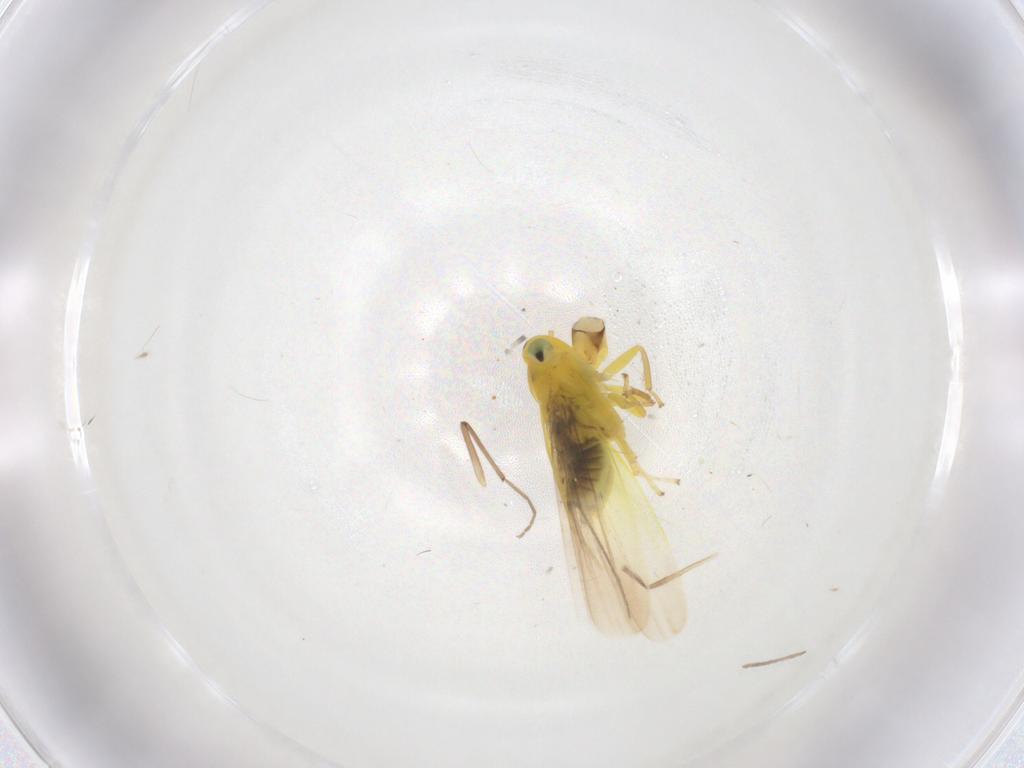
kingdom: Animalia
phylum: Arthropoda
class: Insecta
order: Hemiptera
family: Cicadellidae
